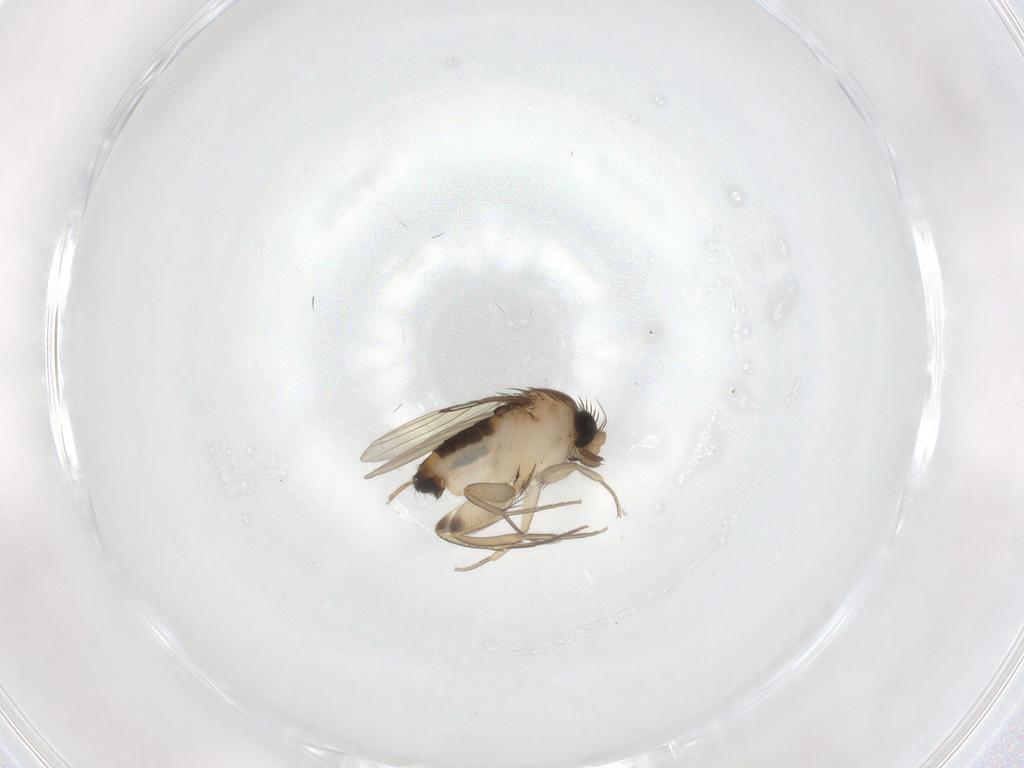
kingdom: Animalia
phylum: Arthropoda
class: Insecta
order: Diptera
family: Phoridae
